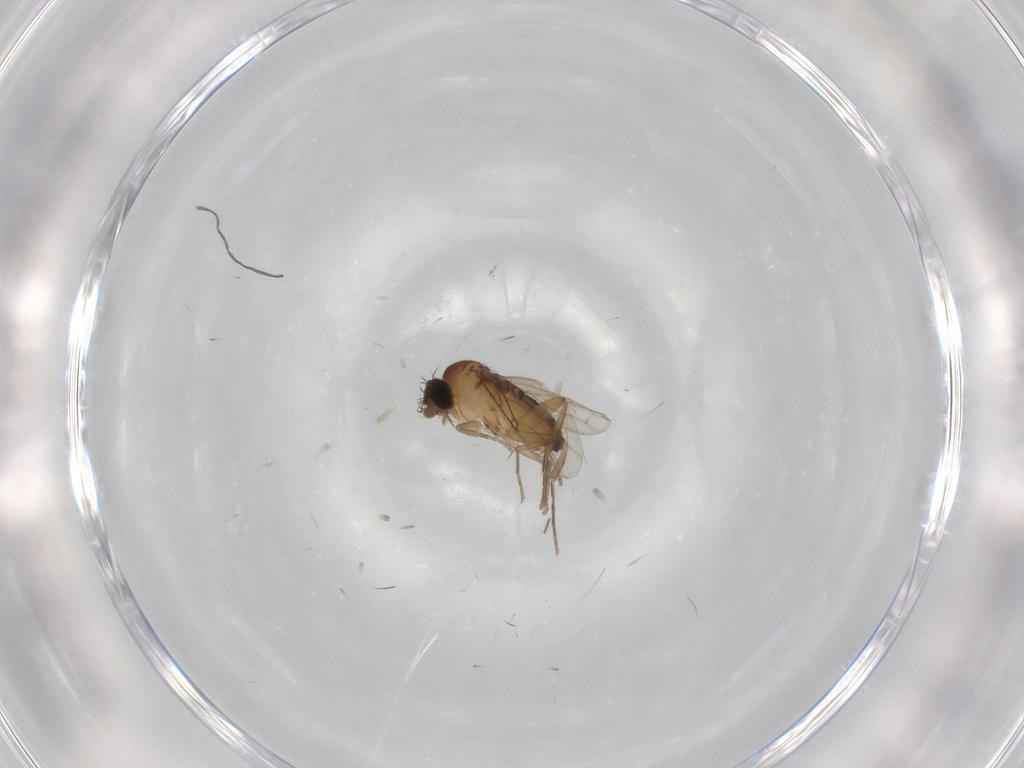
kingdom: Animalia
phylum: Arthropoda
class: Insecta
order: Diptera
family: Phoridae
